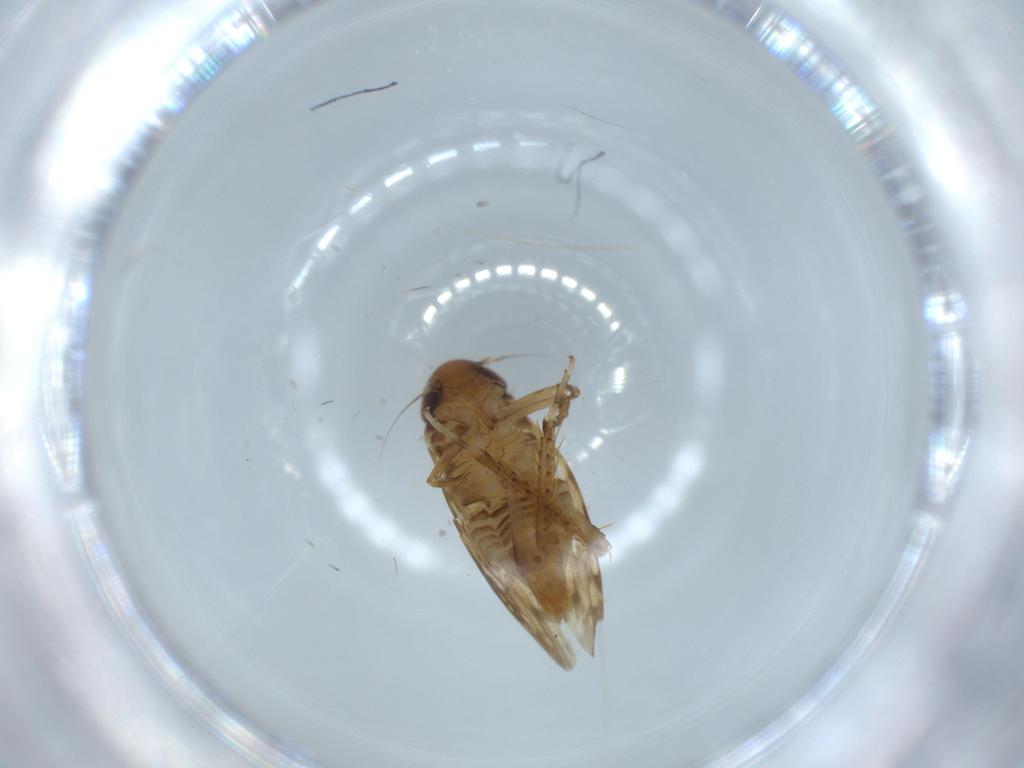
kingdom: Animalia
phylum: Arthropoda
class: Insecta
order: Hemiptera
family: Cicadellidae
